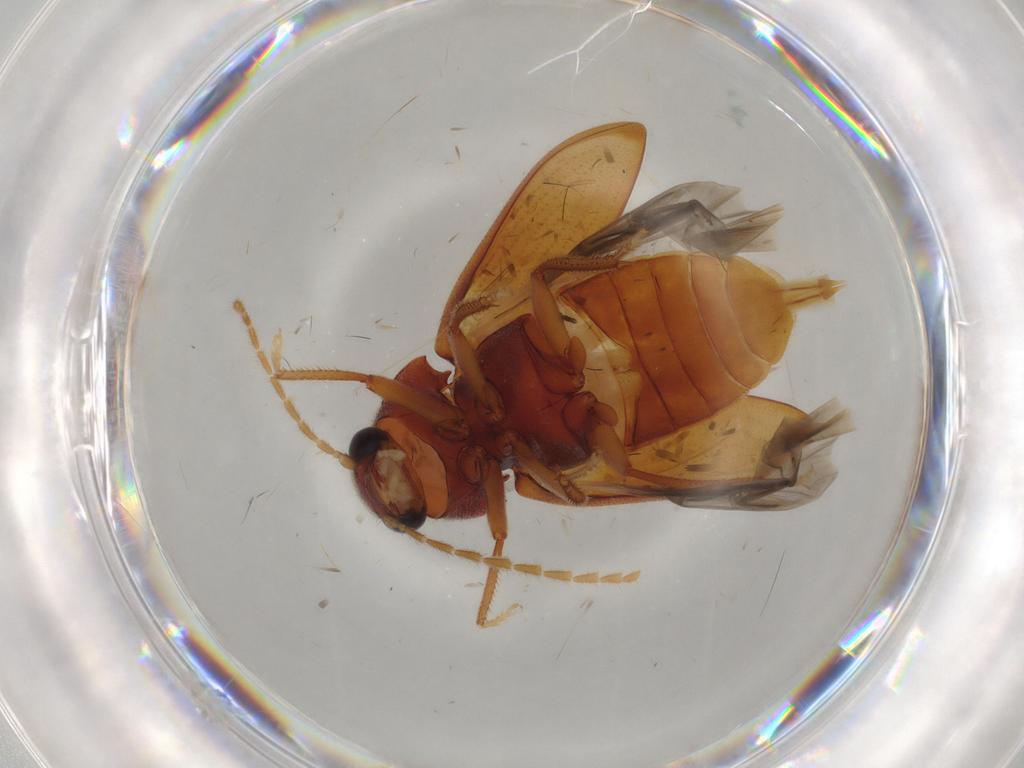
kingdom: Animalia
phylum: Arthropoda
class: Insecta
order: Coleoptera
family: Ptilodactylidae
